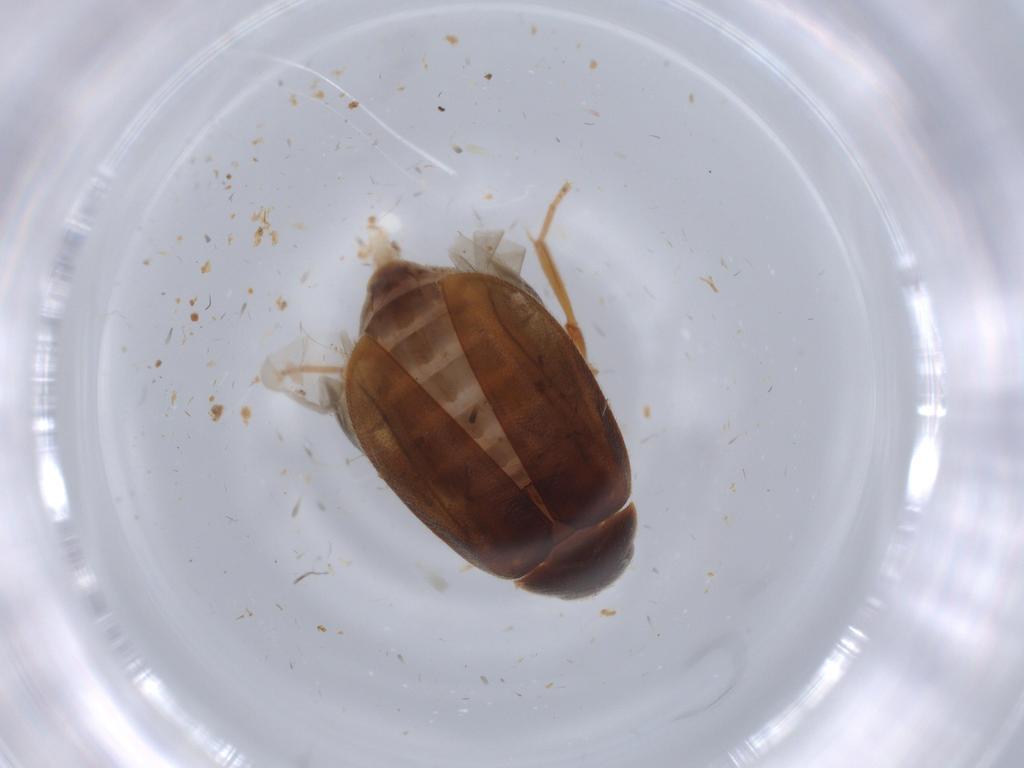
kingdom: Animalia
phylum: Arthropoda
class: Insecta
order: Coleoptera
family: Scirtidae
